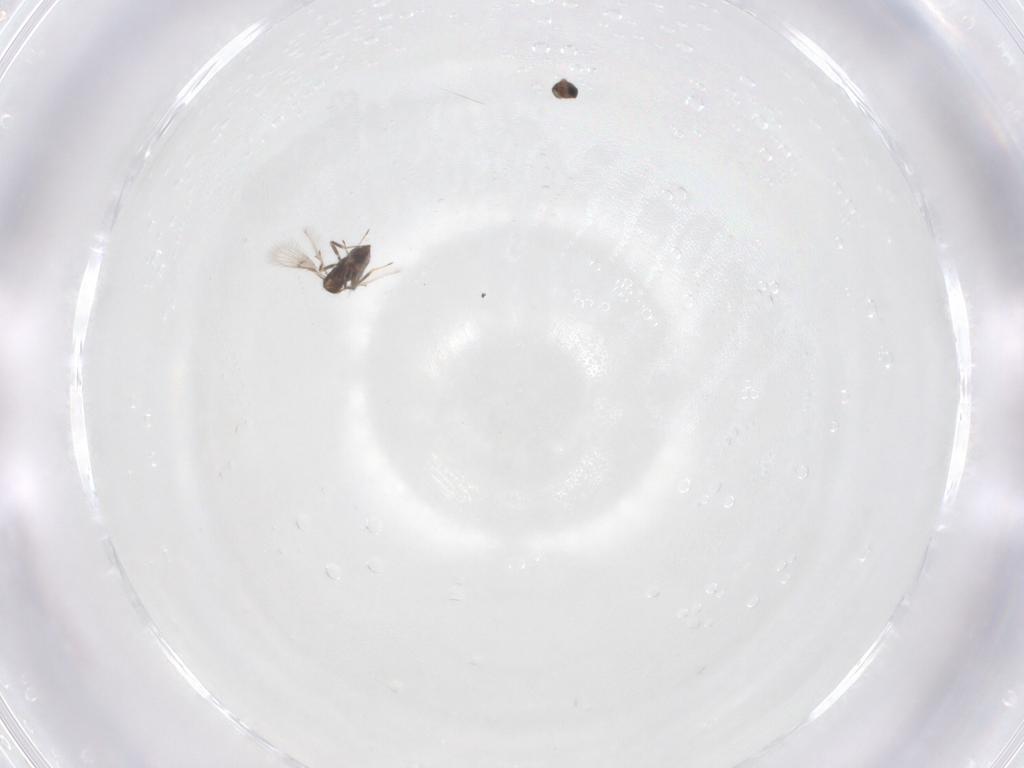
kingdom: Animalia
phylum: Arthropoda
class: Insecta
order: Hymenoptera
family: Trichogrammatidae
